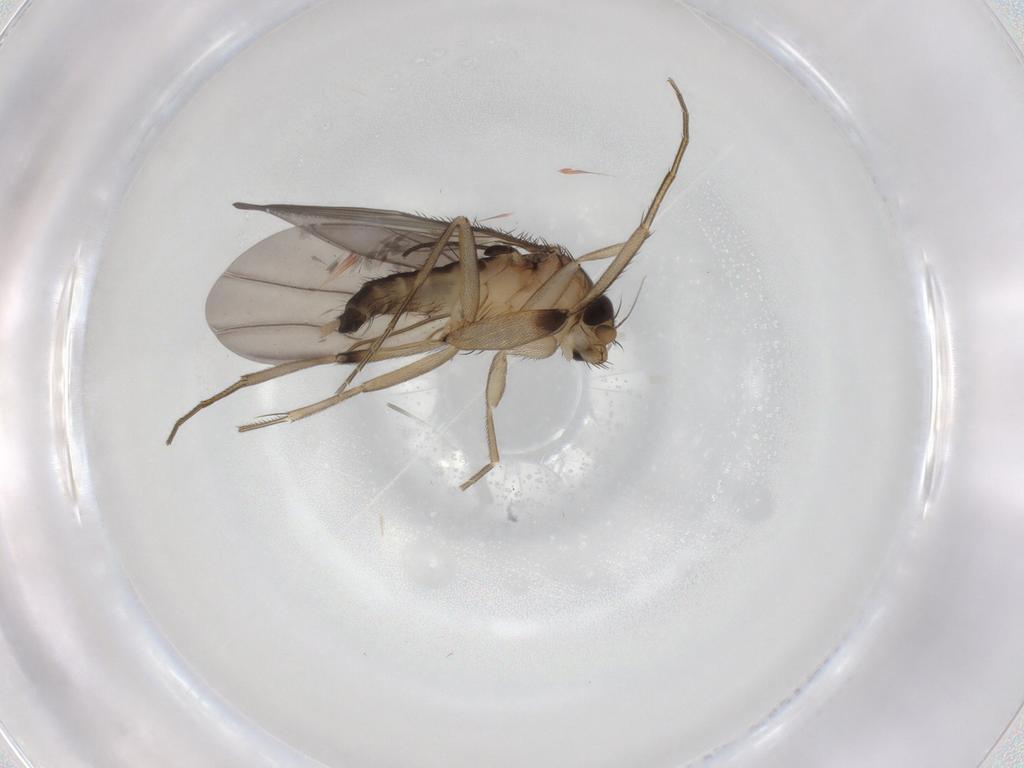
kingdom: Animalia
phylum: Arthropoda
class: Insecta
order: Diptera
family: Phoridae
